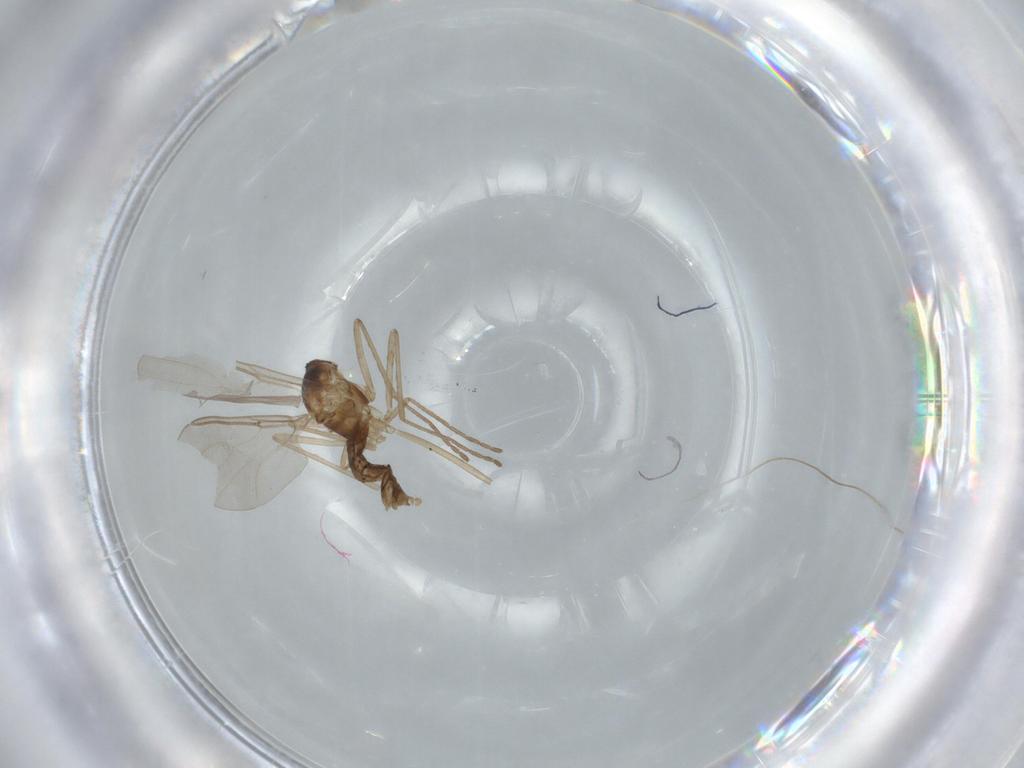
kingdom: Animalia
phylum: Arthropoda
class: Insecta
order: Diptera
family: Cecidomyiidae
